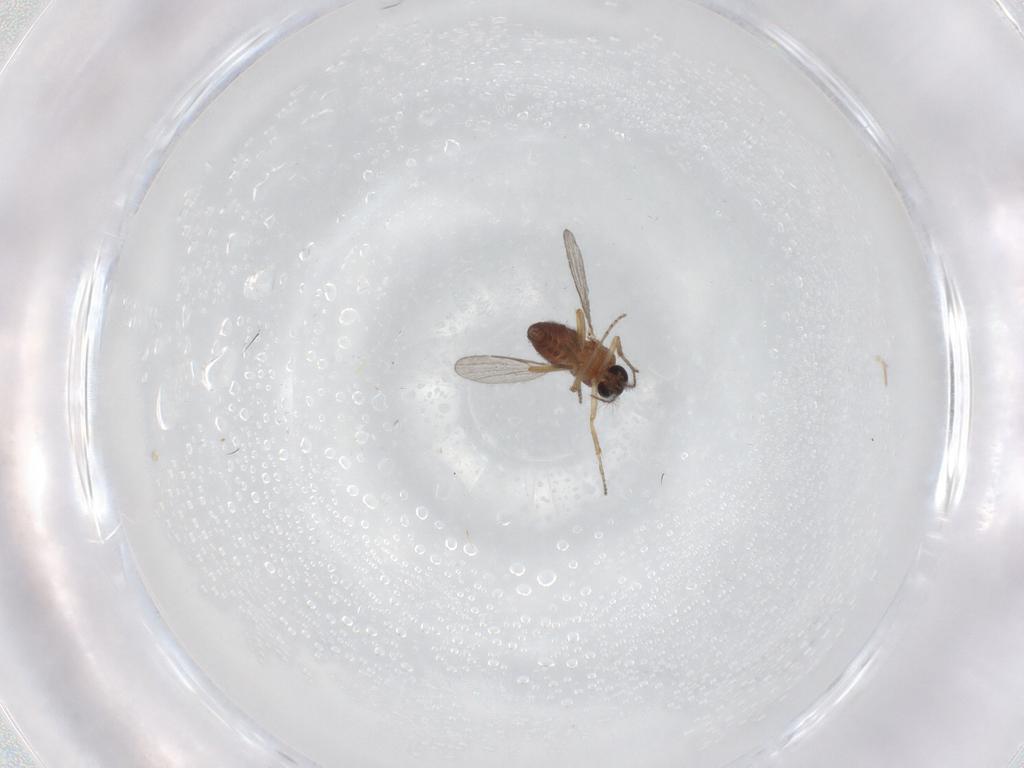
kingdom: Animalia
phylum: Arthropoda
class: Insecta
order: Diptera
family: Ceratopogonidae
